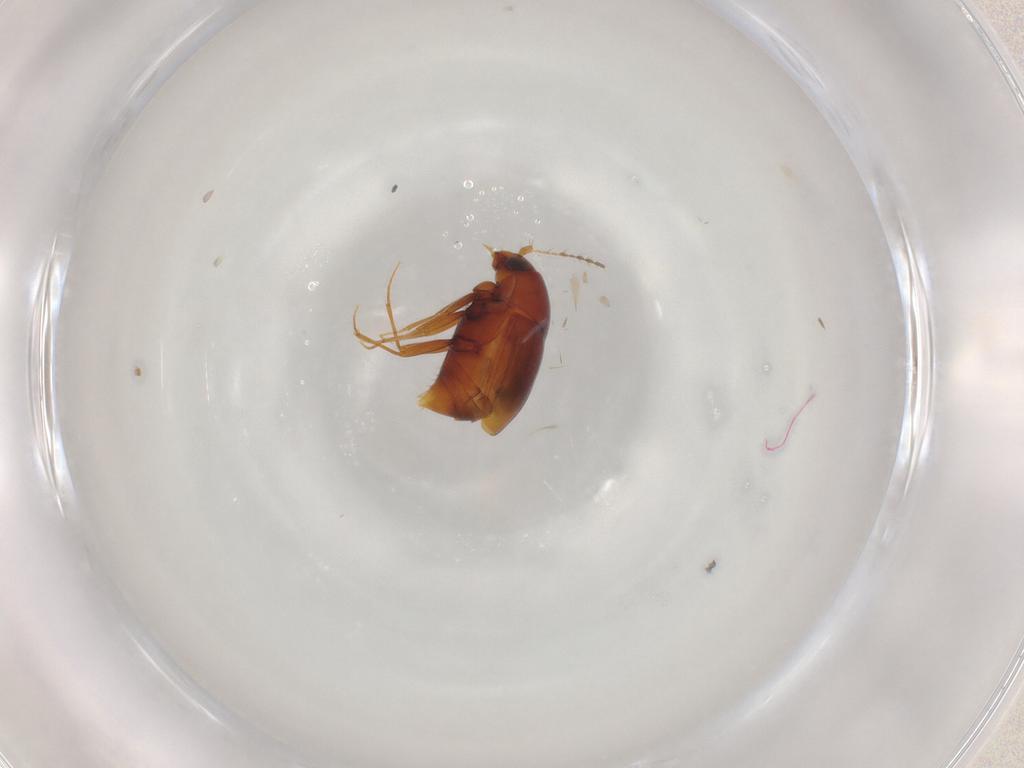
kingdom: Animalia
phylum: Arthropoda
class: Insecta
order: Coleoptera
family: Staphylinidae
